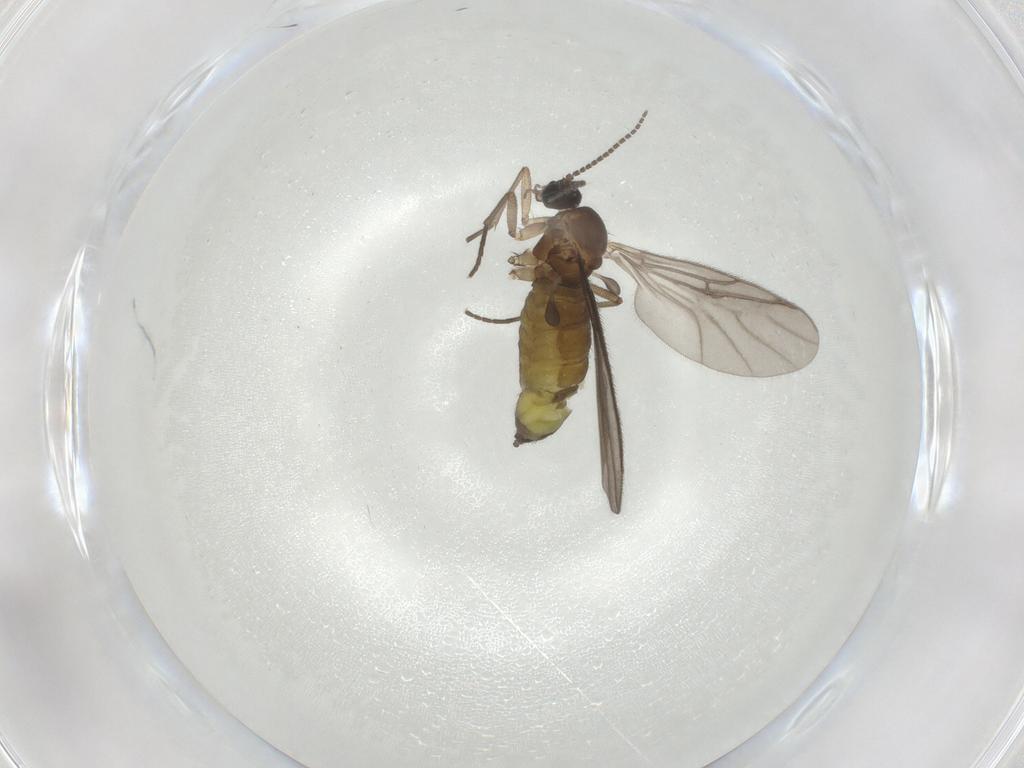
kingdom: Animalia
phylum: Arthropoda
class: Insecta
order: Diptera
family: Sciaridae
